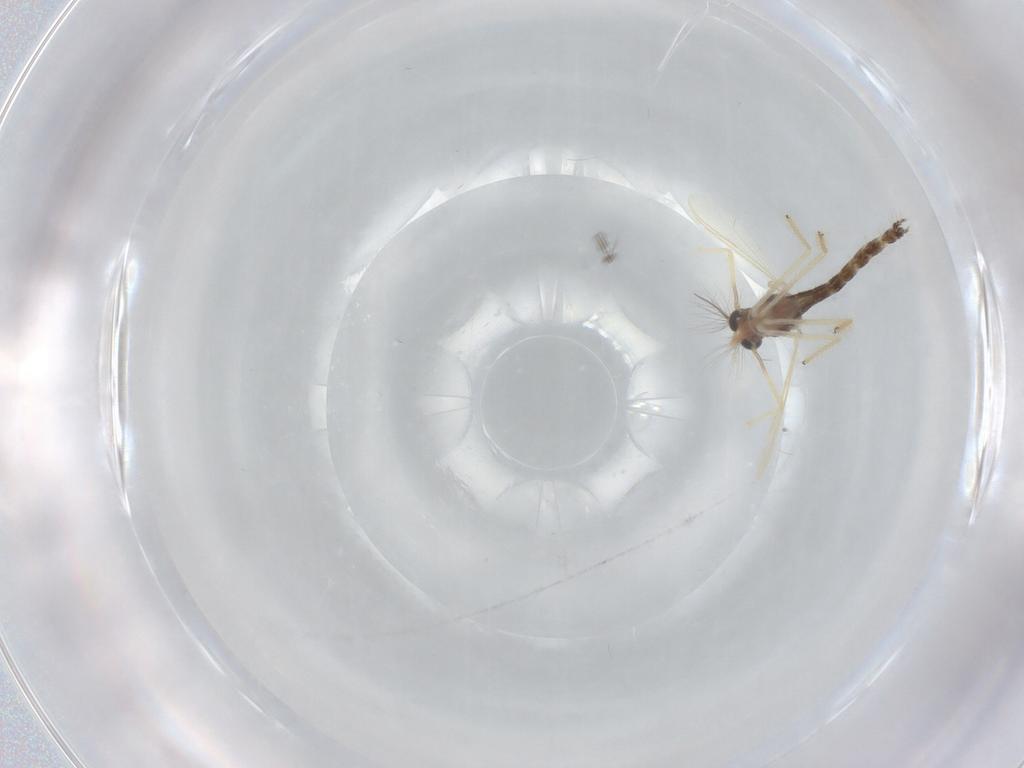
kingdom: Animalia
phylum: Arthropoda
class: Insecta
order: Diptera
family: Chironomidae
